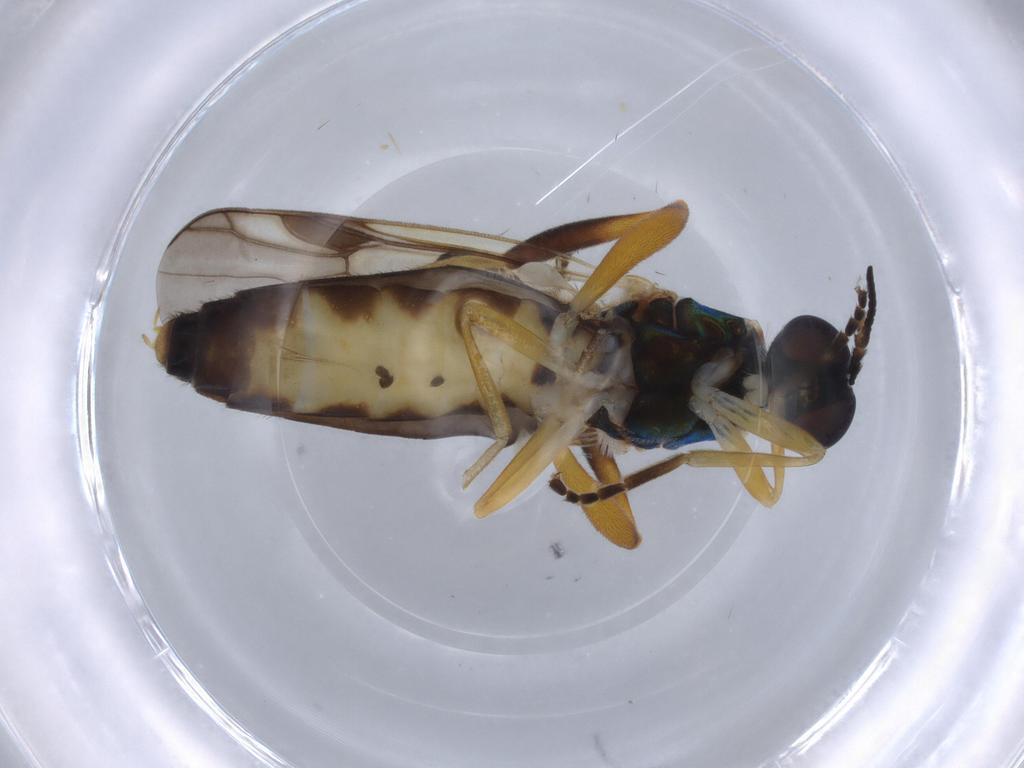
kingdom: Animalia
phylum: Arthropoda
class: Insecta
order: Diptera
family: Stratiomyidae
